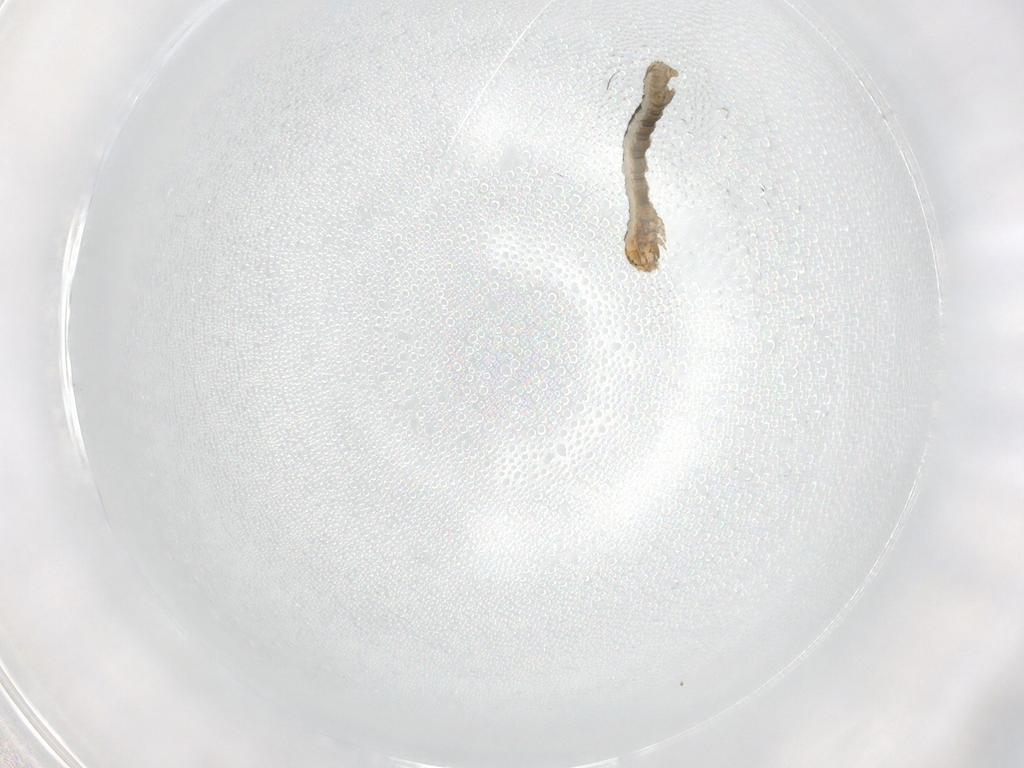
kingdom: Animalia
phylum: Arthropoda
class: Insecta
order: Lepidoptera
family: Geometridae
